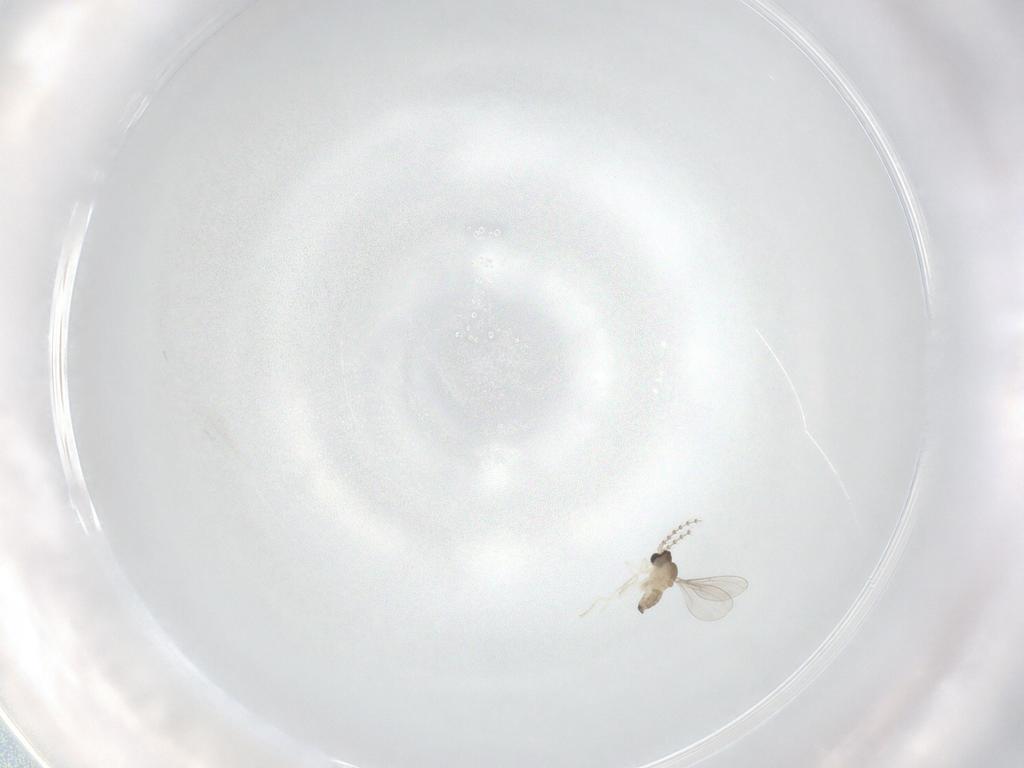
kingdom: Animalia
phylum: Arthropoda
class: Insecta
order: Diptera
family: Cecidomyiidae
